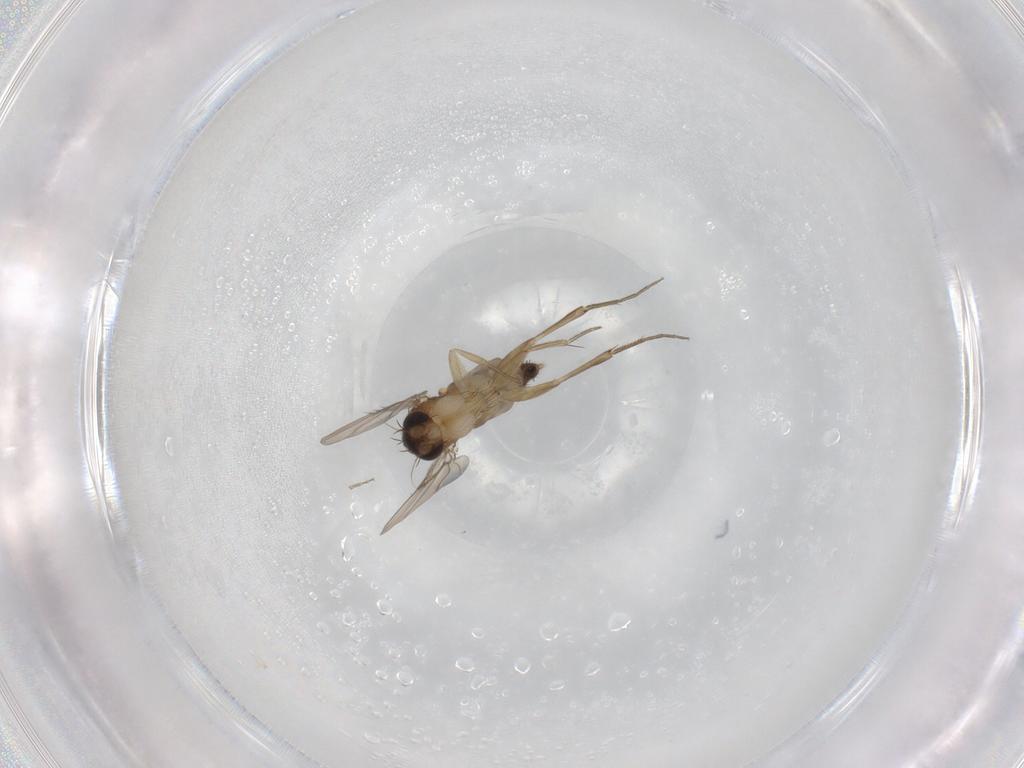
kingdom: Animalia
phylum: Arthropoda
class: Insecta
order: Diptera
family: Phoridae
